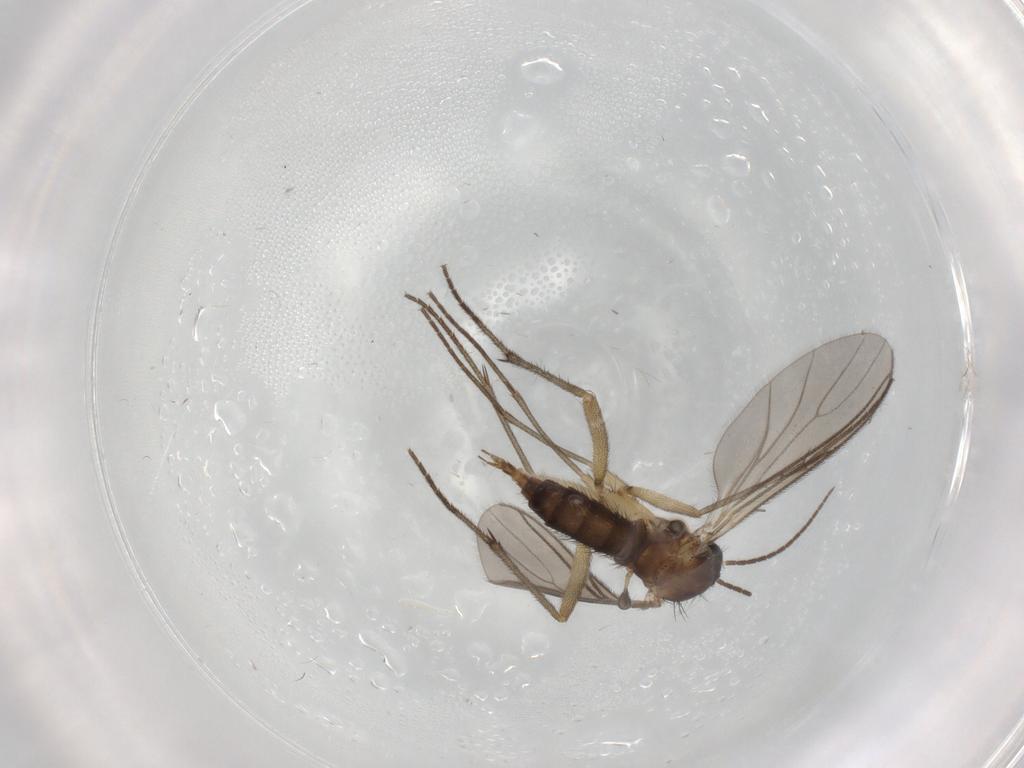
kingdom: Animalia
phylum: Arthropoda
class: Insecta
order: Diptera
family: Sciaridae
